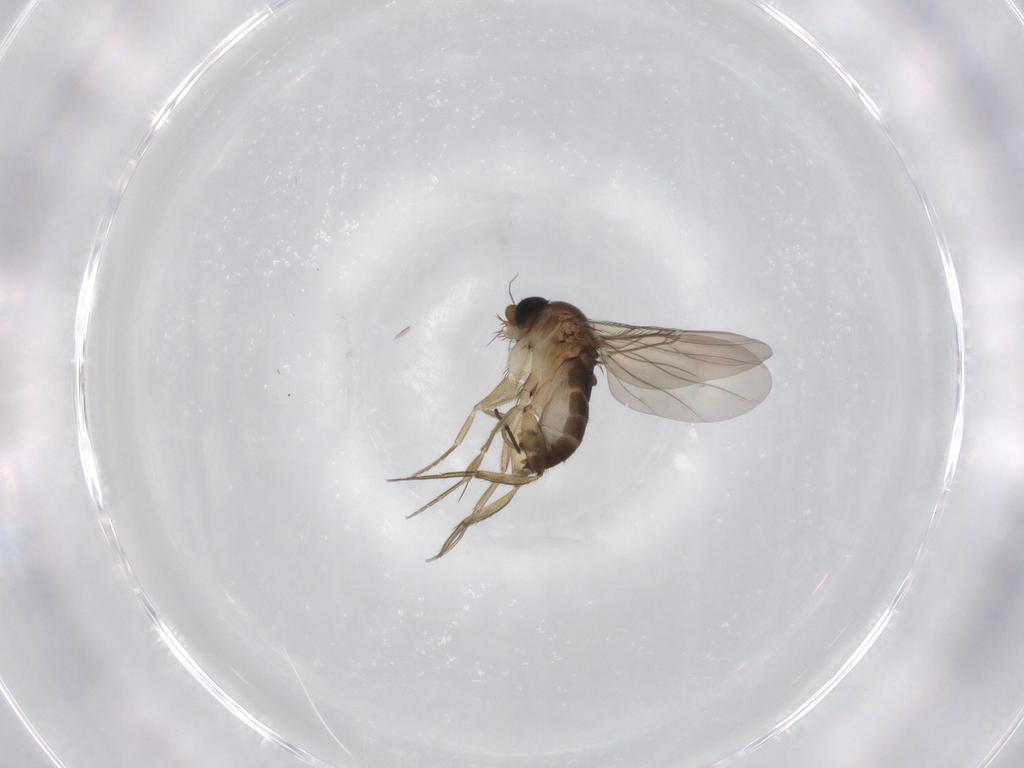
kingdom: Animalia
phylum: Arthropoda
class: Insecta
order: Diptera
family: Cecidomyiidae
